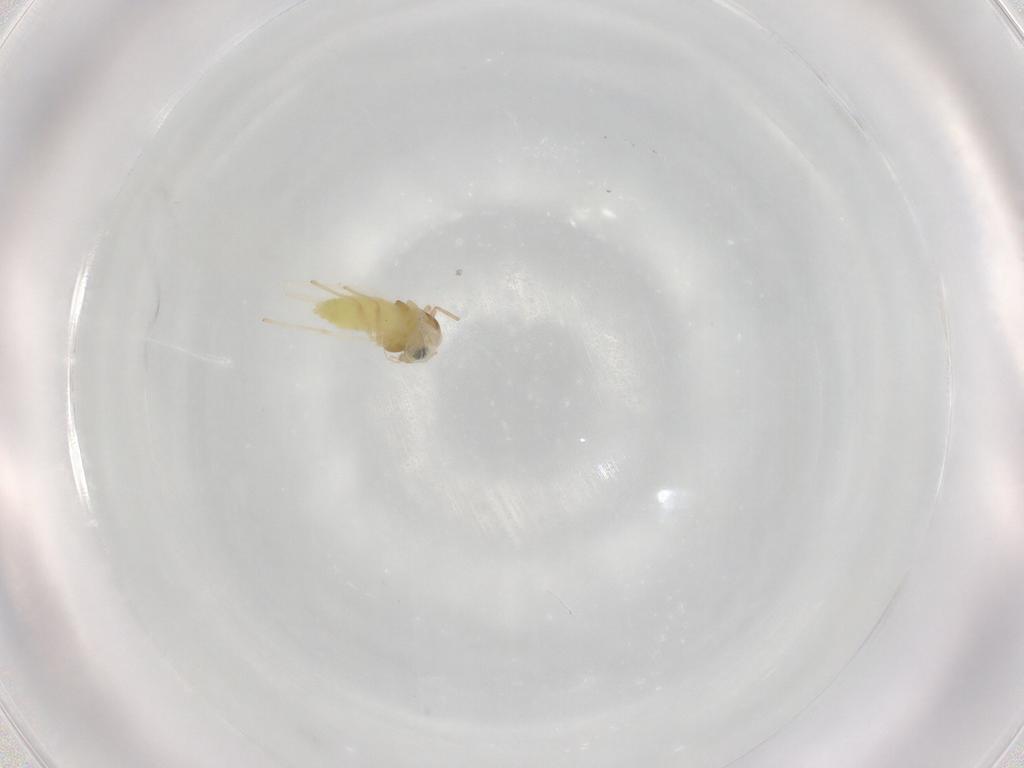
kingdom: Animalia
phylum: Arthropoda
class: Insecta
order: Diptera
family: Chironomidae
